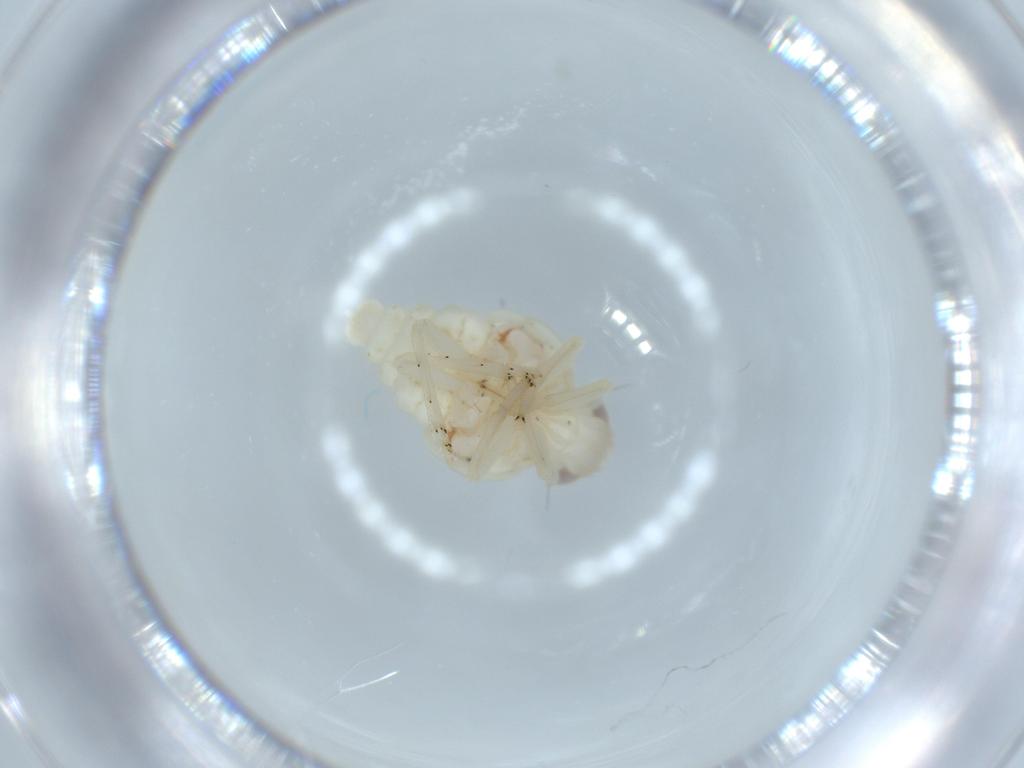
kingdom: Animalia
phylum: Arthropoda
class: Insecta
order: Hemiptera
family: Nogodinidae
